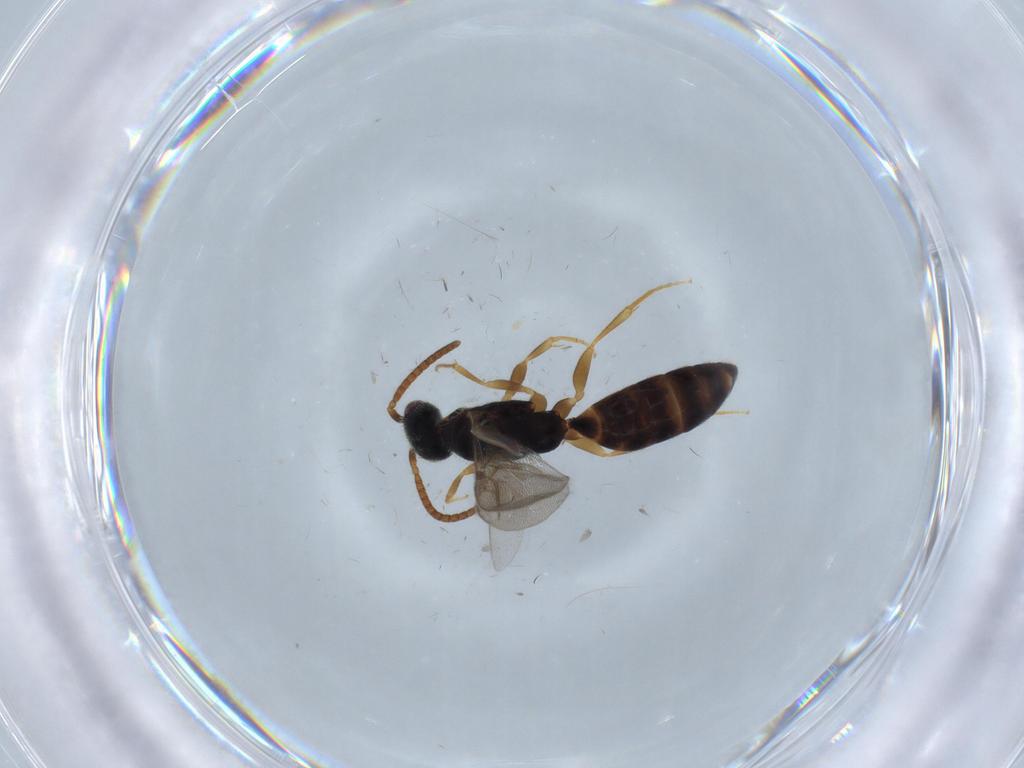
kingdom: Animalia
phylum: Arthropoda
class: Insecta
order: Hymenoptera
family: Bethylidae
